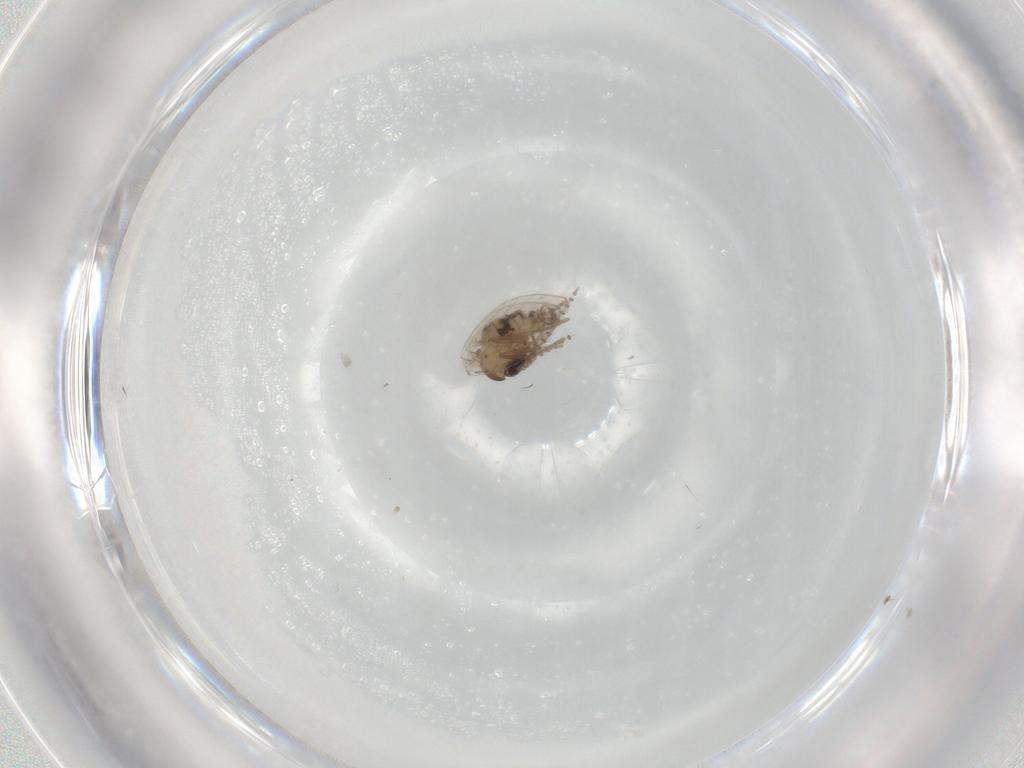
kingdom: Animalia
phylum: Arthropoda
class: Insecta
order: Diptera
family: Psychodidae
